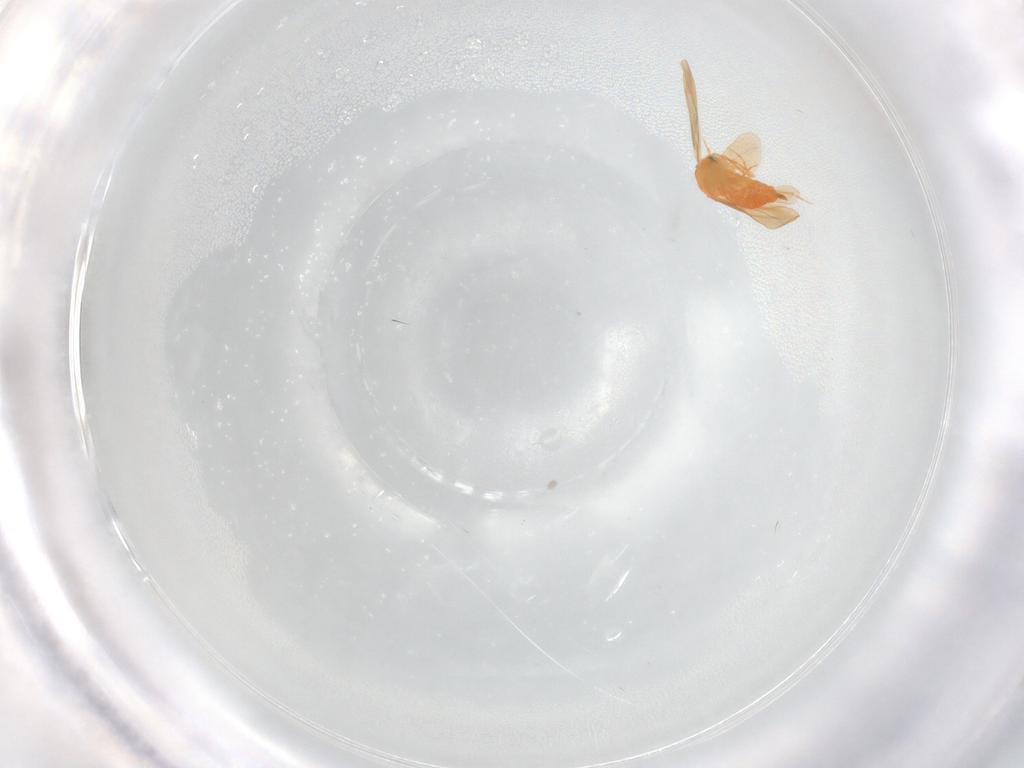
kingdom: Animalia
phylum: Arthropoda
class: Insecta
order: Hemiptera
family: Aleyrodidae
